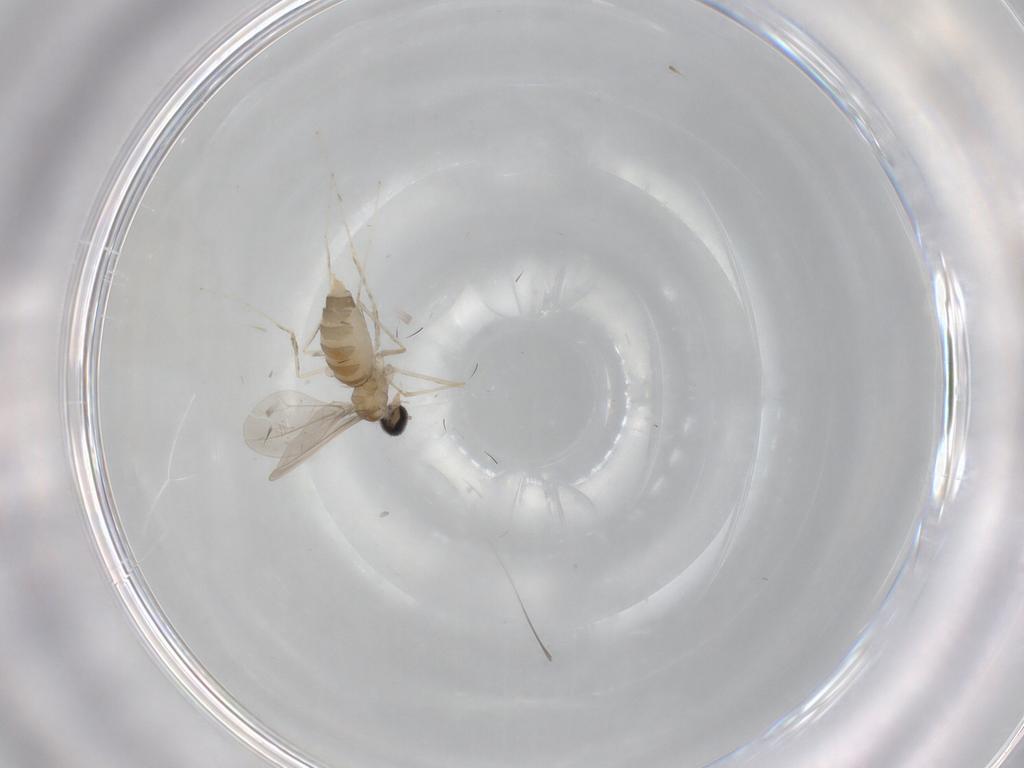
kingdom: Animalia
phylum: Arthropoda
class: Insecta
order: Diptera
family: Cecidomyiidae
